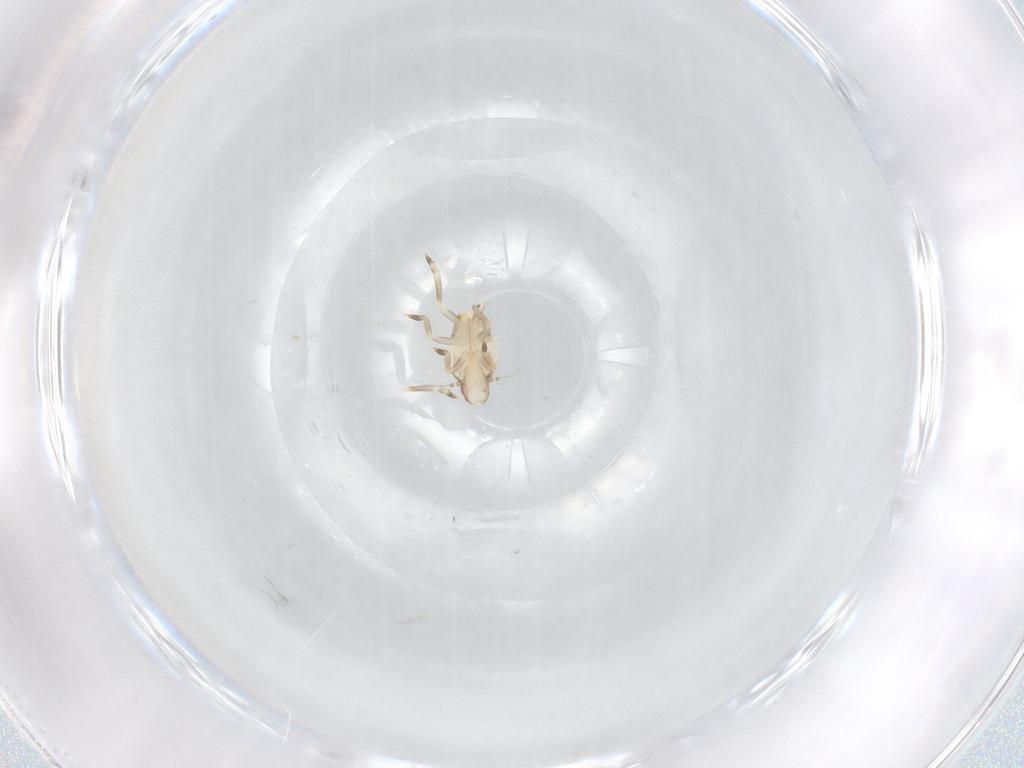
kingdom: Animalia
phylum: Arthropoda
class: Insecta
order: Hemiptera
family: Flatidae
